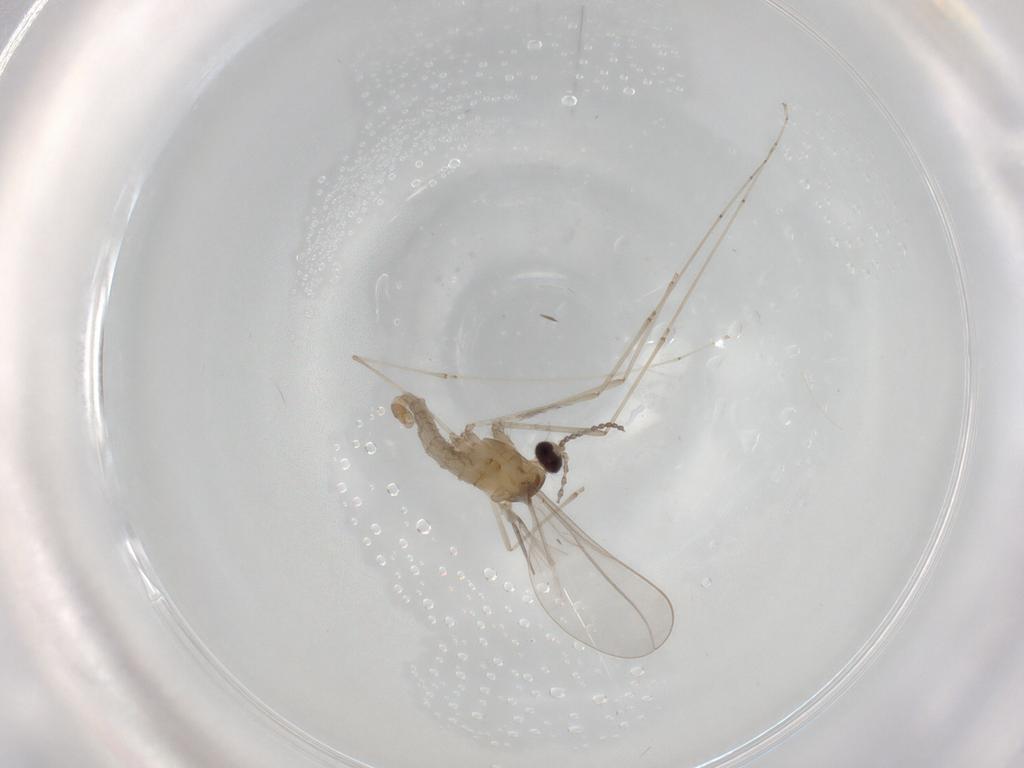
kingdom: Animalia
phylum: Arthropoda
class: Insecta
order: Diptera
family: Cecidomyiidae
